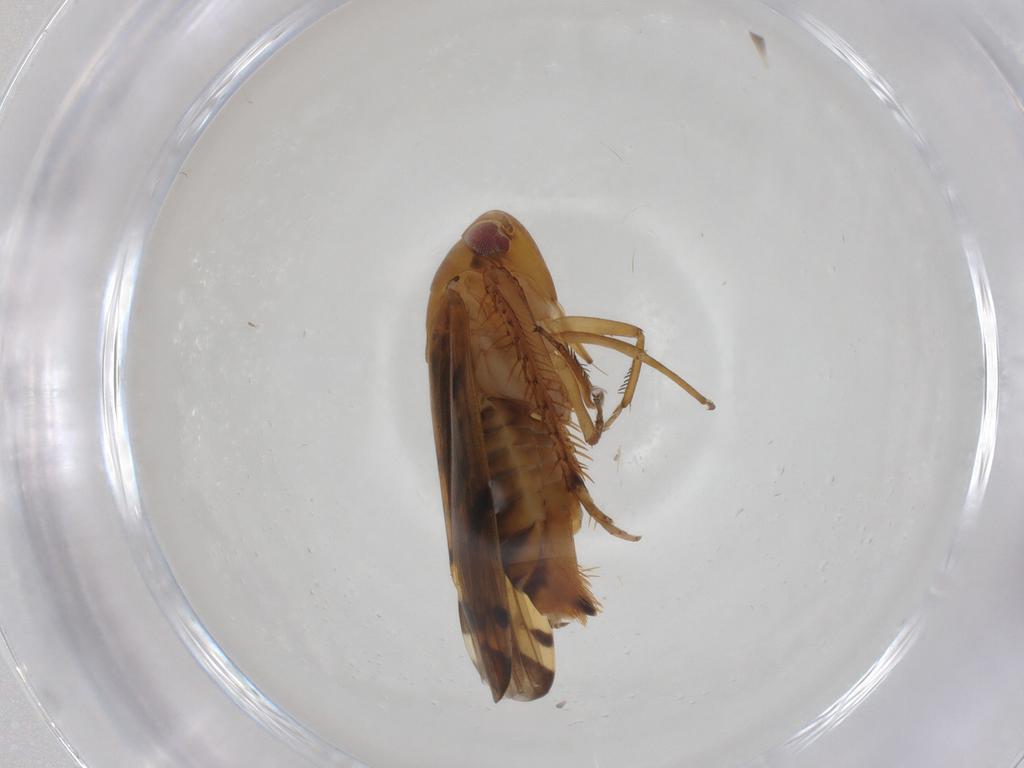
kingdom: Animalia
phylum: Arthropoda
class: Insecta
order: Hemiptera
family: Cicadellidae
